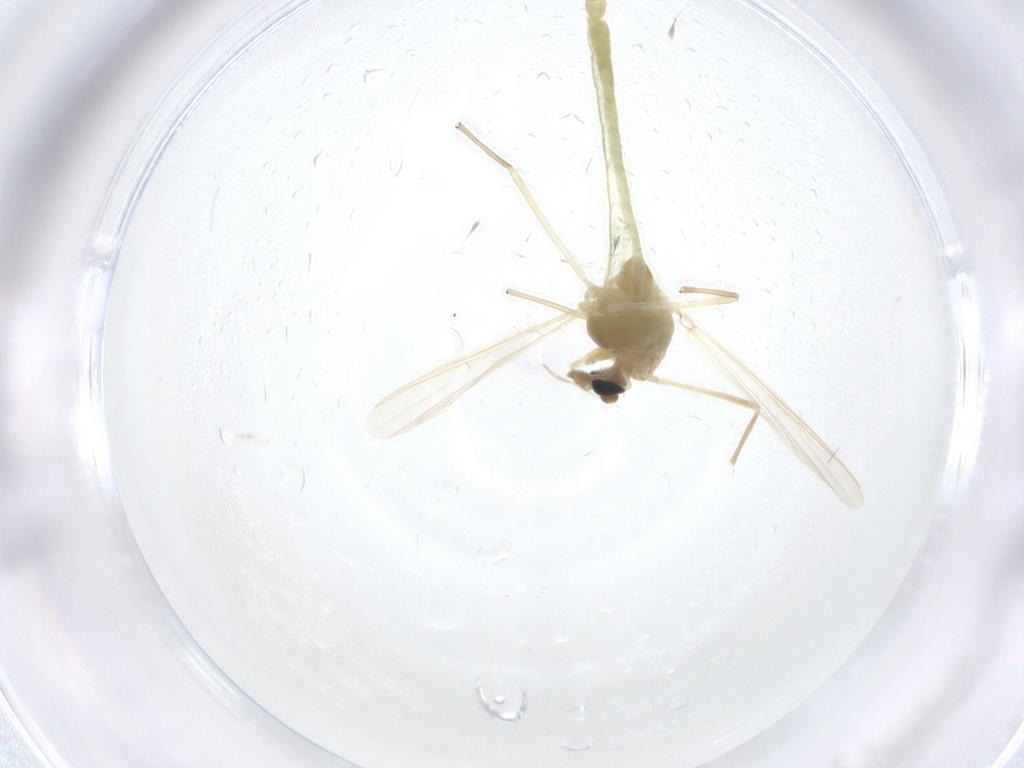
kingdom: Animalia
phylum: Arthropoda
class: Insecta
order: Diptera
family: Chironomidae
